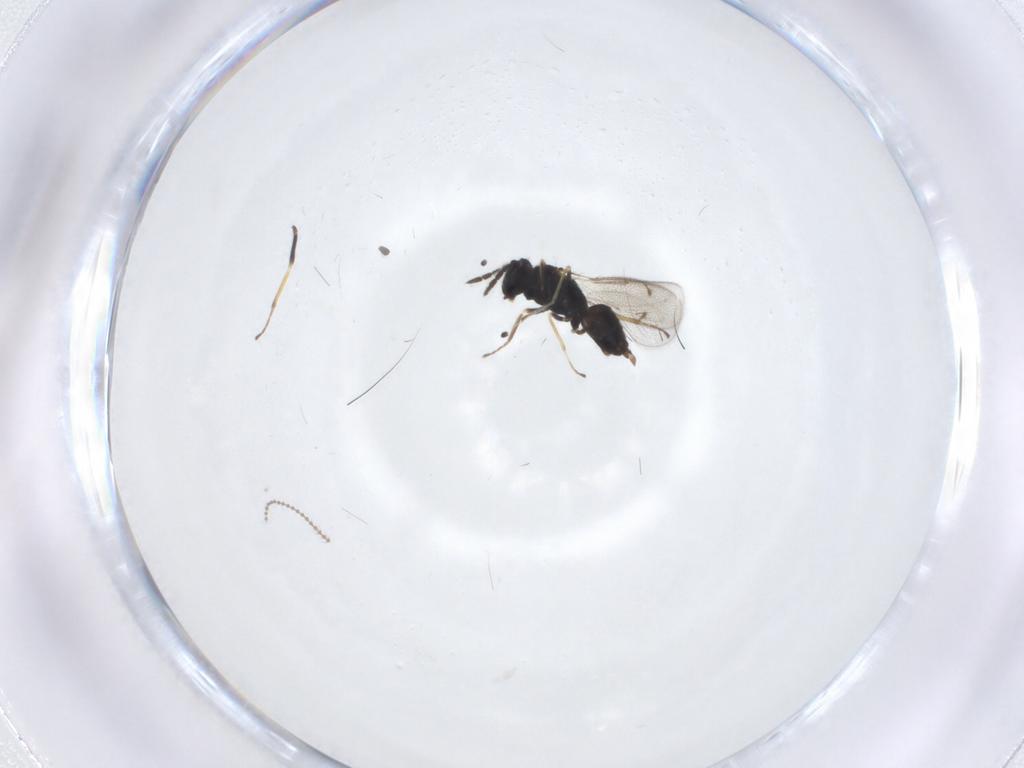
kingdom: Animalia
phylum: Arthropoda
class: Insecta
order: Hymenoptera
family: Eulophidae
